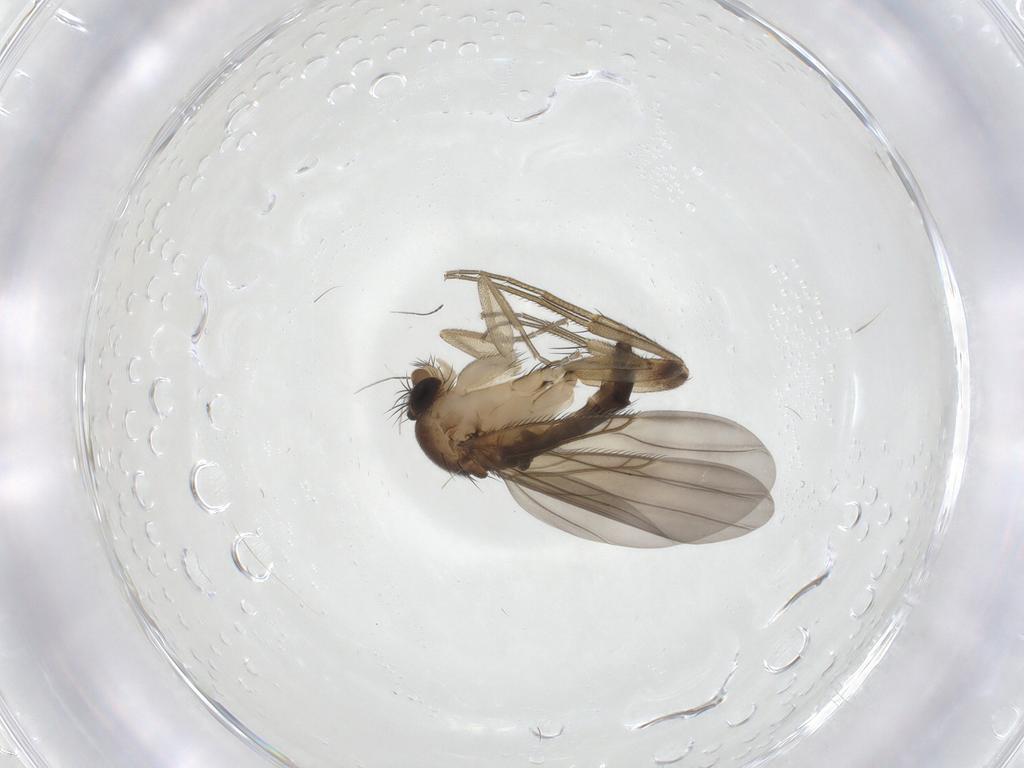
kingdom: Animalia
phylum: Arthropoda
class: Insecta
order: Diptera
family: Phoridae
